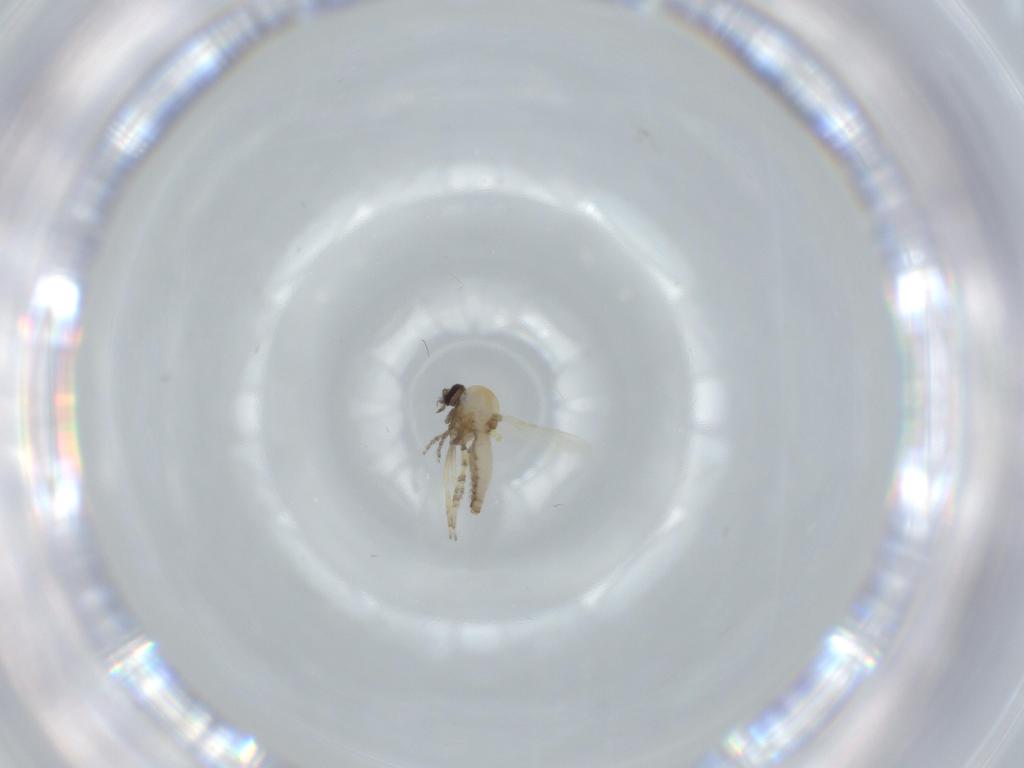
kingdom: Animalia
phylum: Arthropoda
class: Insecta
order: Diptera
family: Ceratopogonidae
